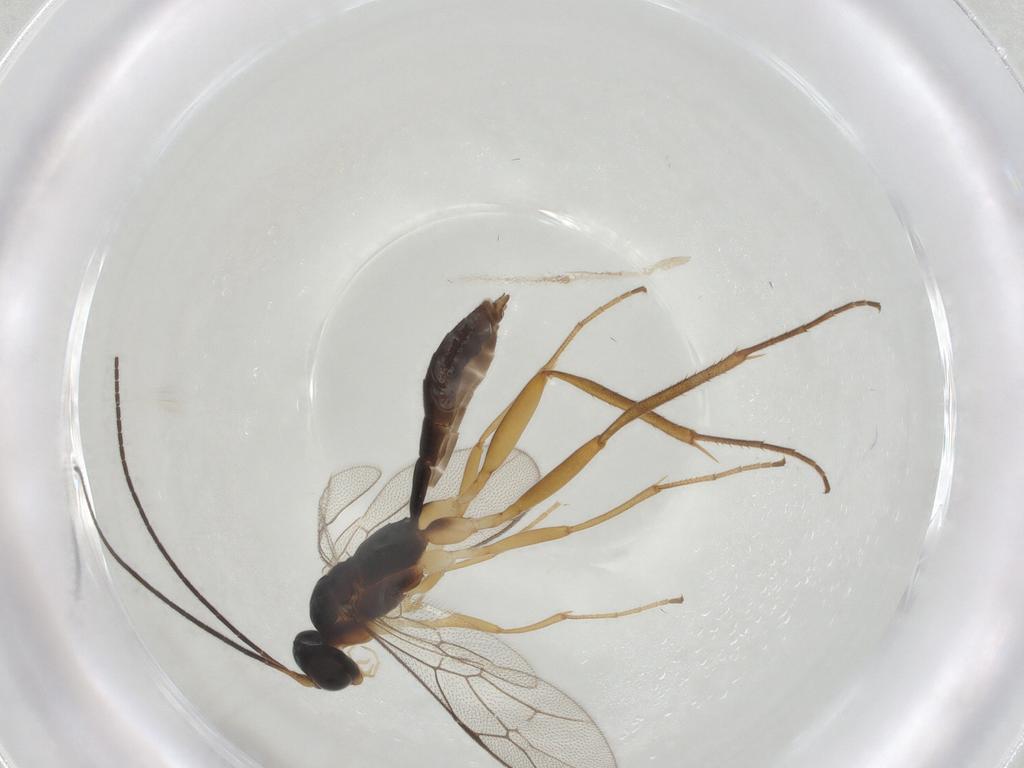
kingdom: Animalia
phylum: Arthropoda
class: Insecta
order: Hymenoptera
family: Ichneumonidae
